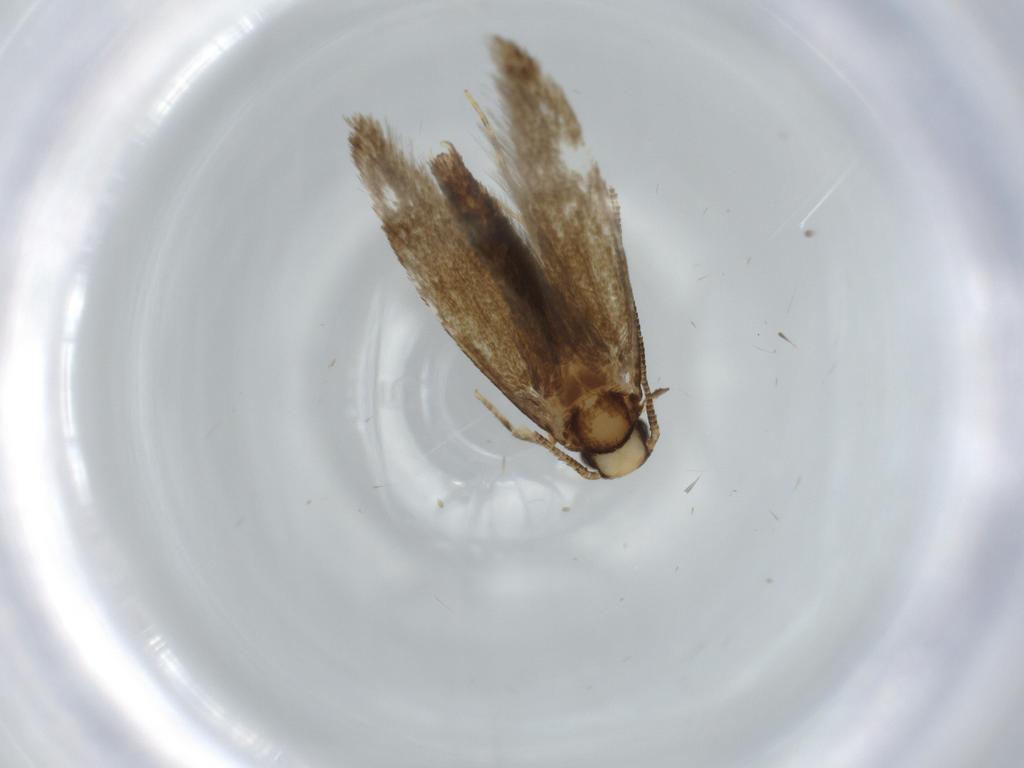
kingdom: Animalia
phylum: Arthropoda
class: Insecta
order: Lepidoptera
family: Tineidae
